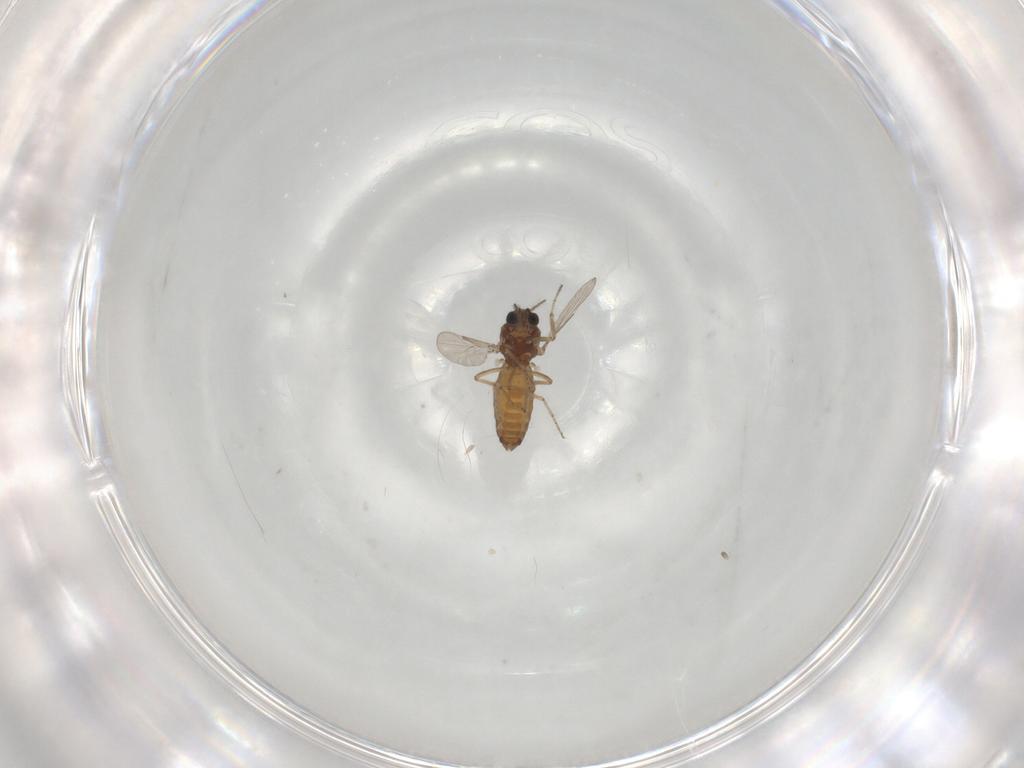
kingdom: Animalia
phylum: Arthropoda
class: Insecta
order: Diptera
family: Ceratopogonidae
